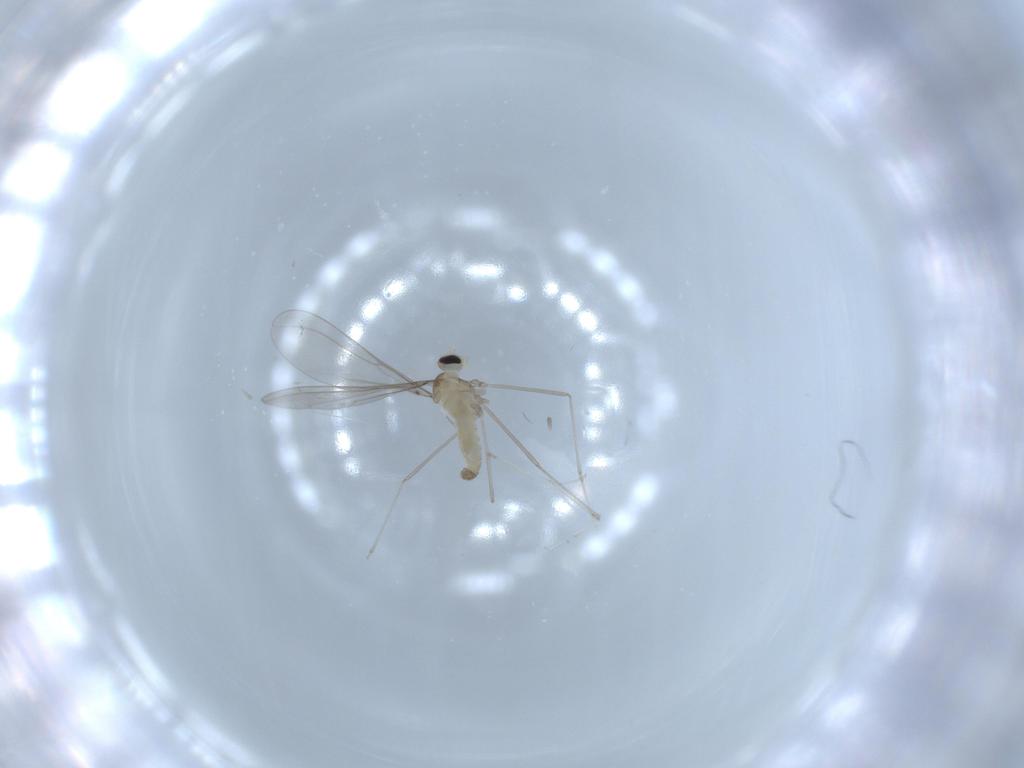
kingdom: Animalia
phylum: Arthropoda
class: Insecta
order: Diptera
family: Cecidomyiidae
